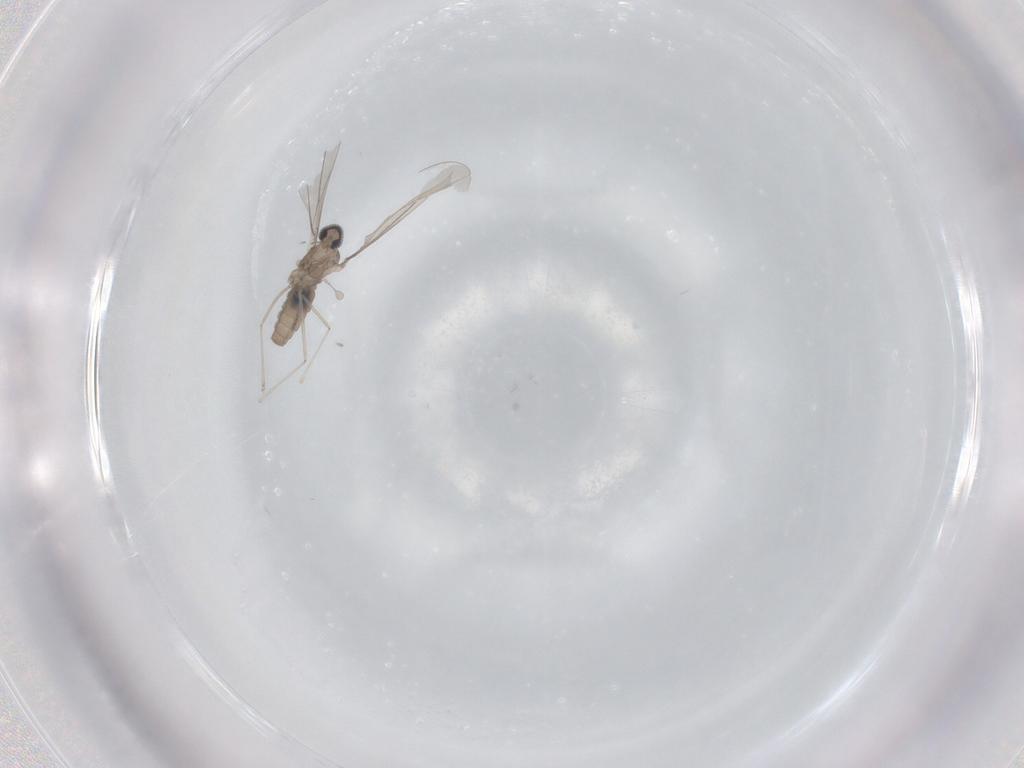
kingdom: Animalia
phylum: Arthropoda
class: Insecta
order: Diptera
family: Cecidomyiidae
